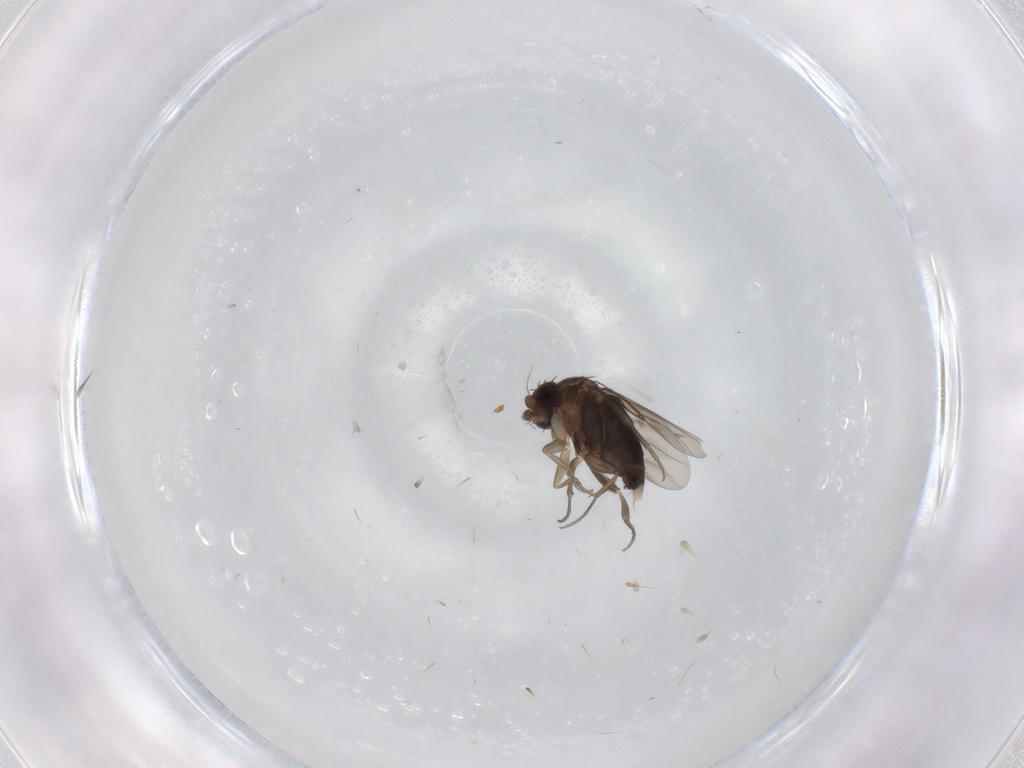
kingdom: Animalia
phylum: Arthropoda
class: Insecta
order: Diptera
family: Phoridae
